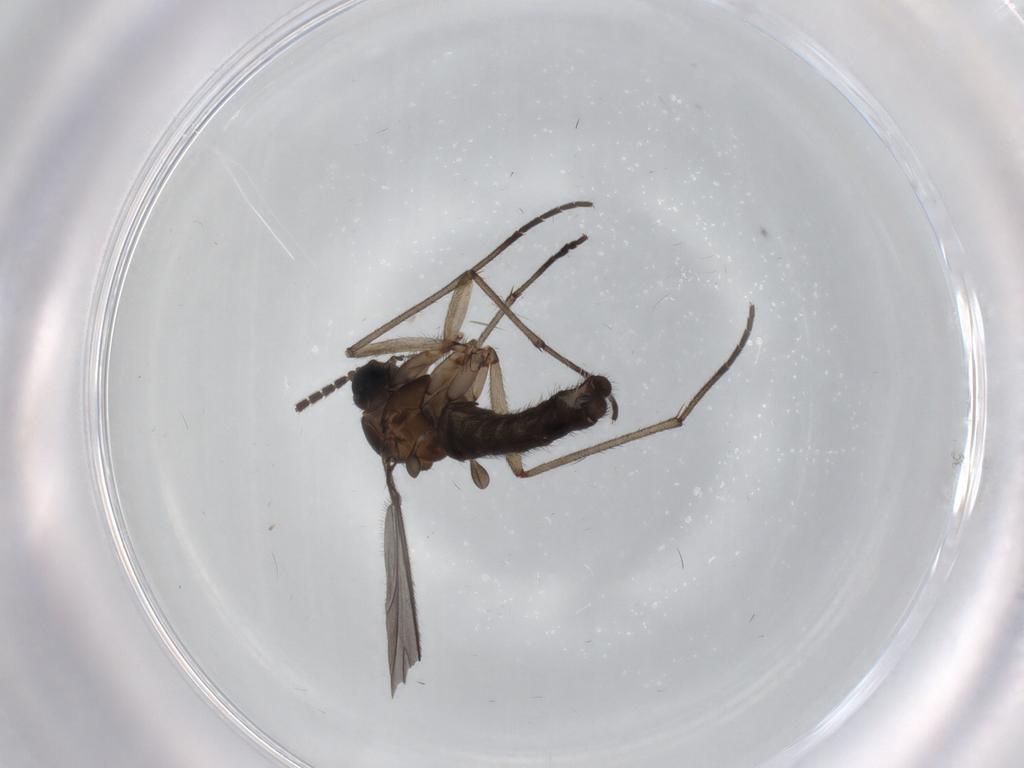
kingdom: Animalia
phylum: Arthropoda
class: Insecta
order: Diptera
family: Sciaridae
